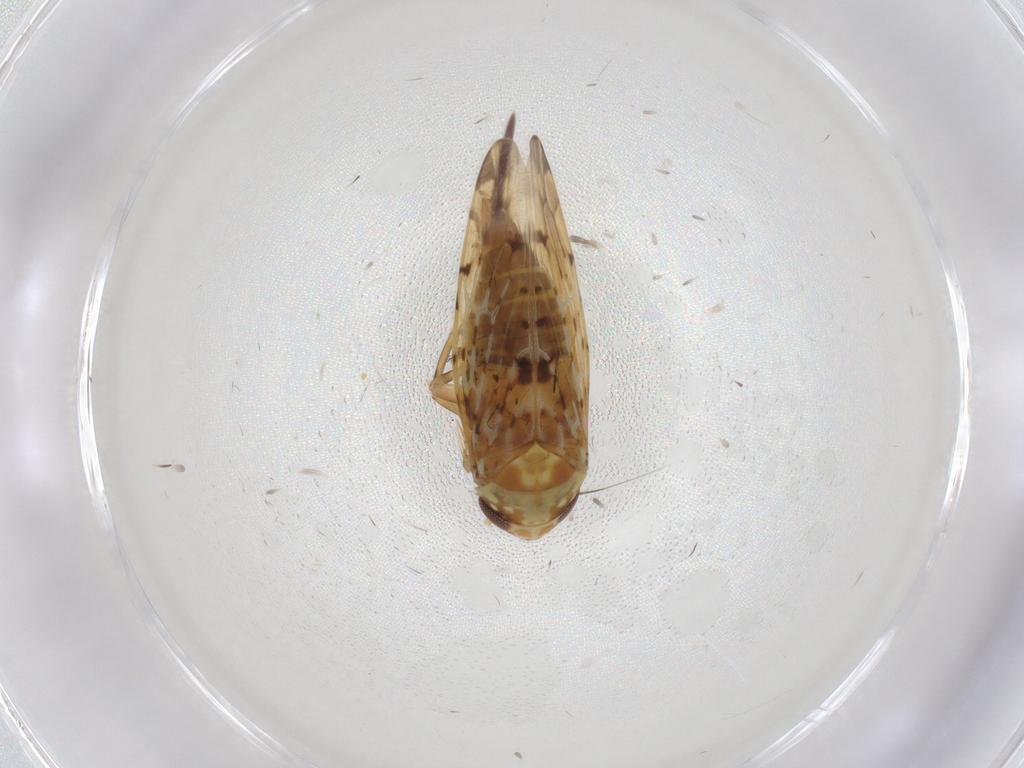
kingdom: Animalia
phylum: Arthropoda
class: Insecta
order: Hemiptera
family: Cicadellidae
